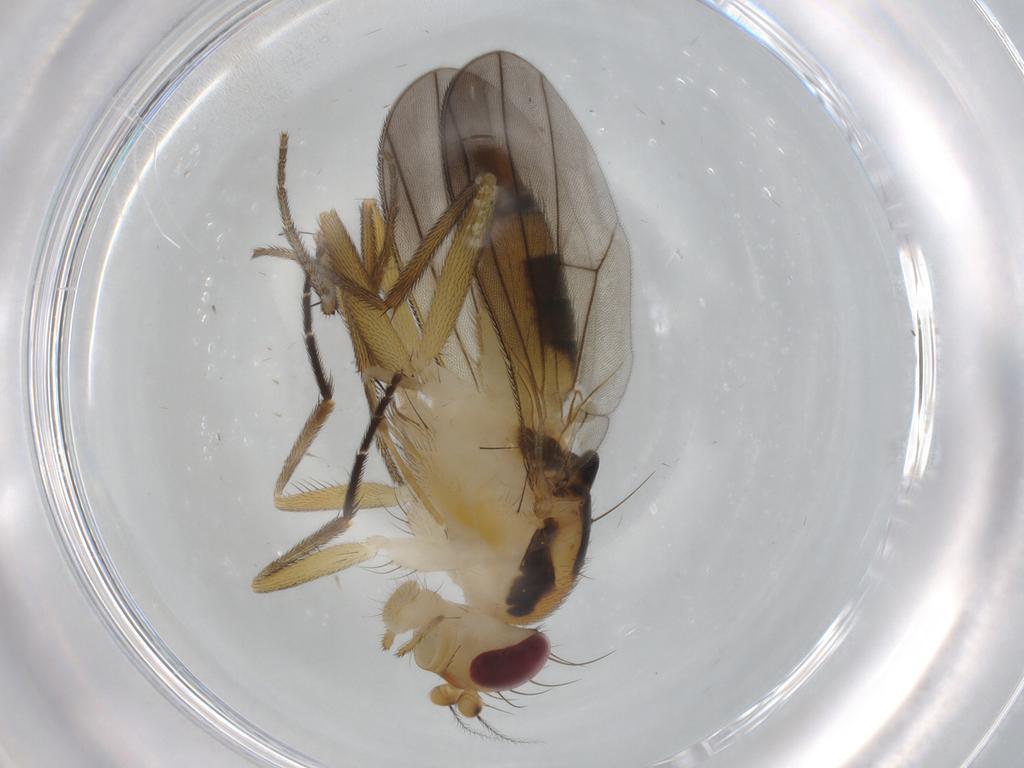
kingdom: Animalia
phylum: Arthropoda
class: Insecta
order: Diptera
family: Clusiidae
